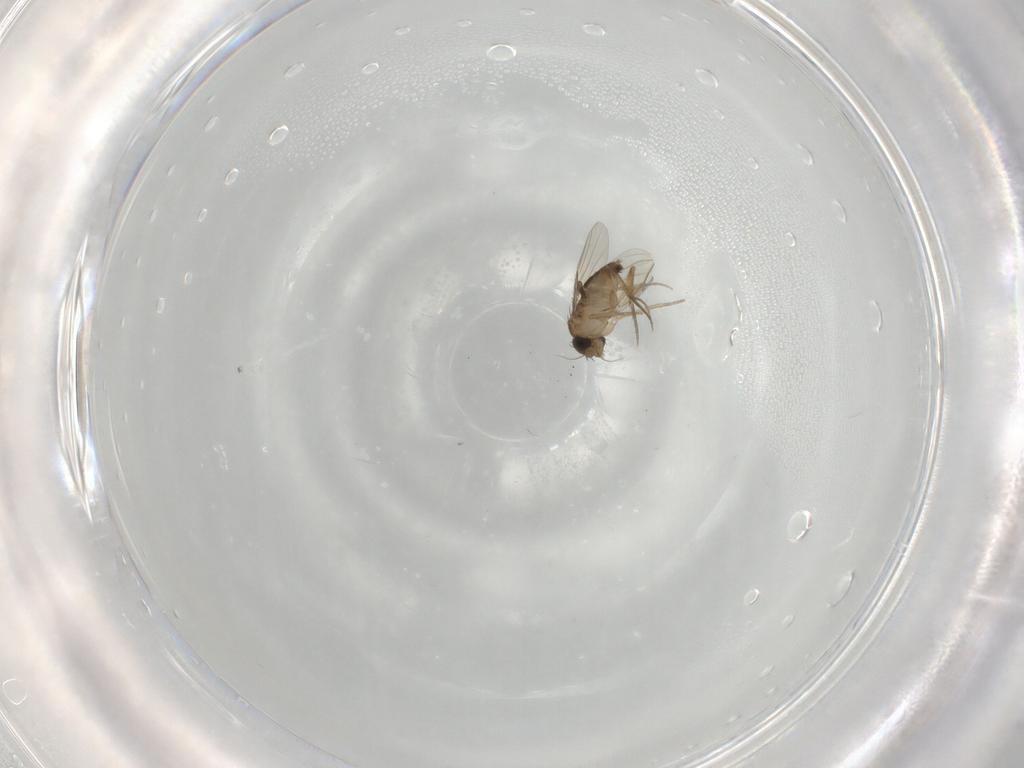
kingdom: Animalia
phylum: Arthropoda
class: Insecta
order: Diptera
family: Phoridae
